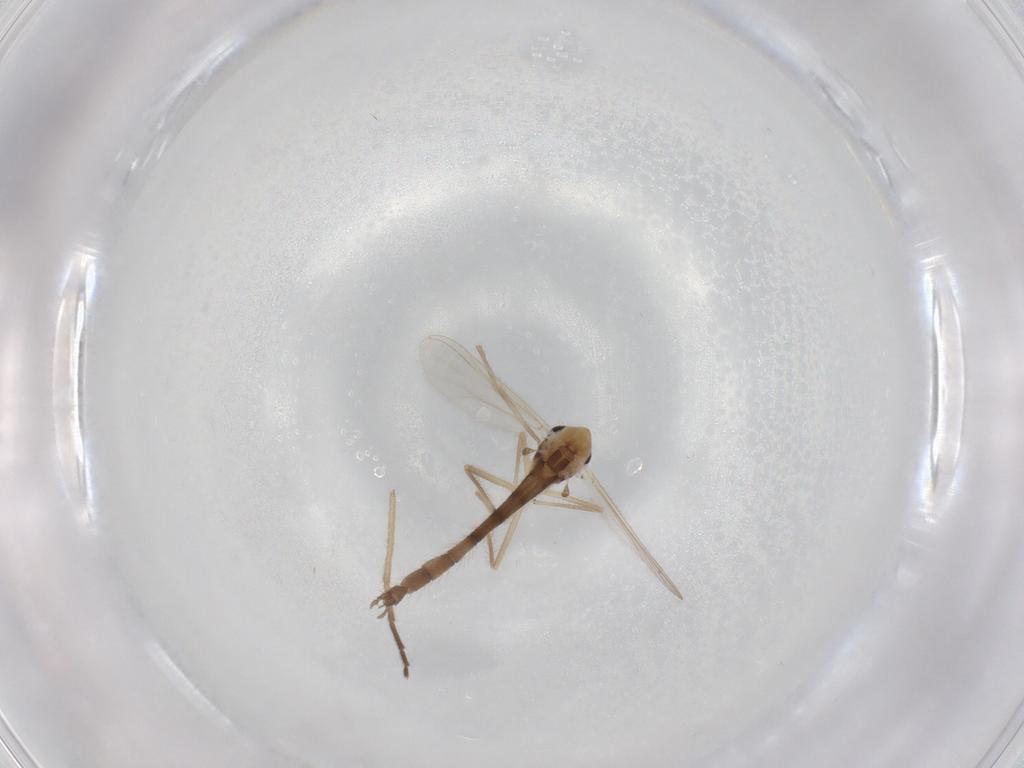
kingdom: Animalia
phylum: Arthropoda
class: Insecta
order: Diptera
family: Chironomidae
